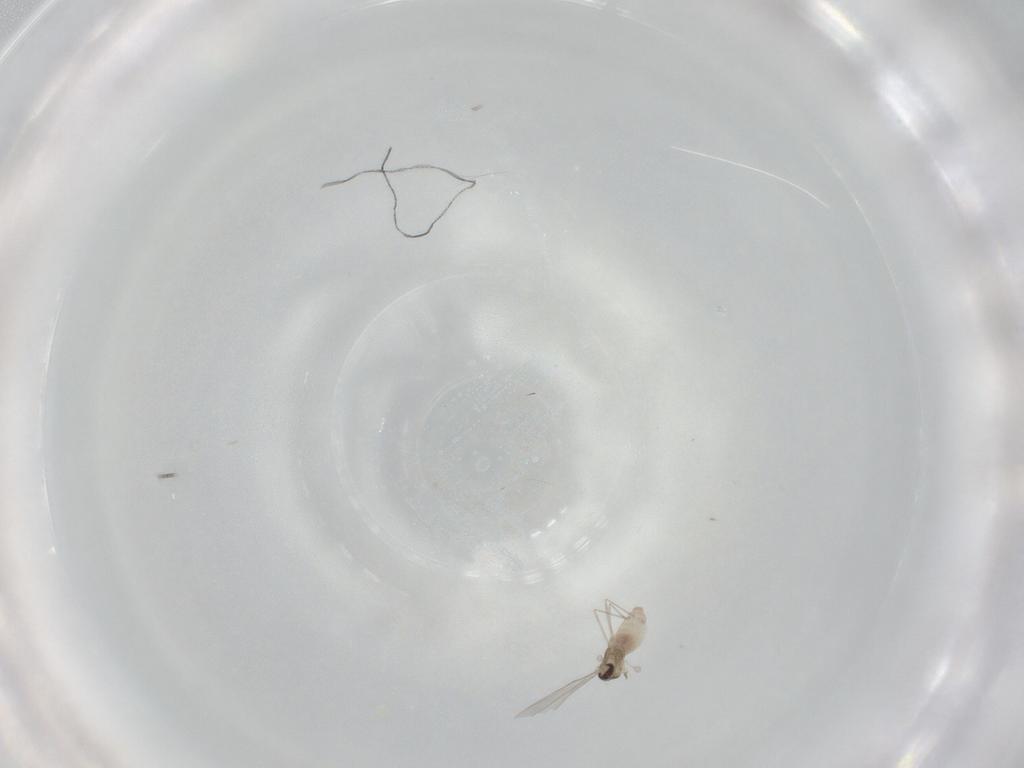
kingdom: Animalia
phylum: Arthropoda
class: Insecta
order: Diptera
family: Cecidomyiidae
